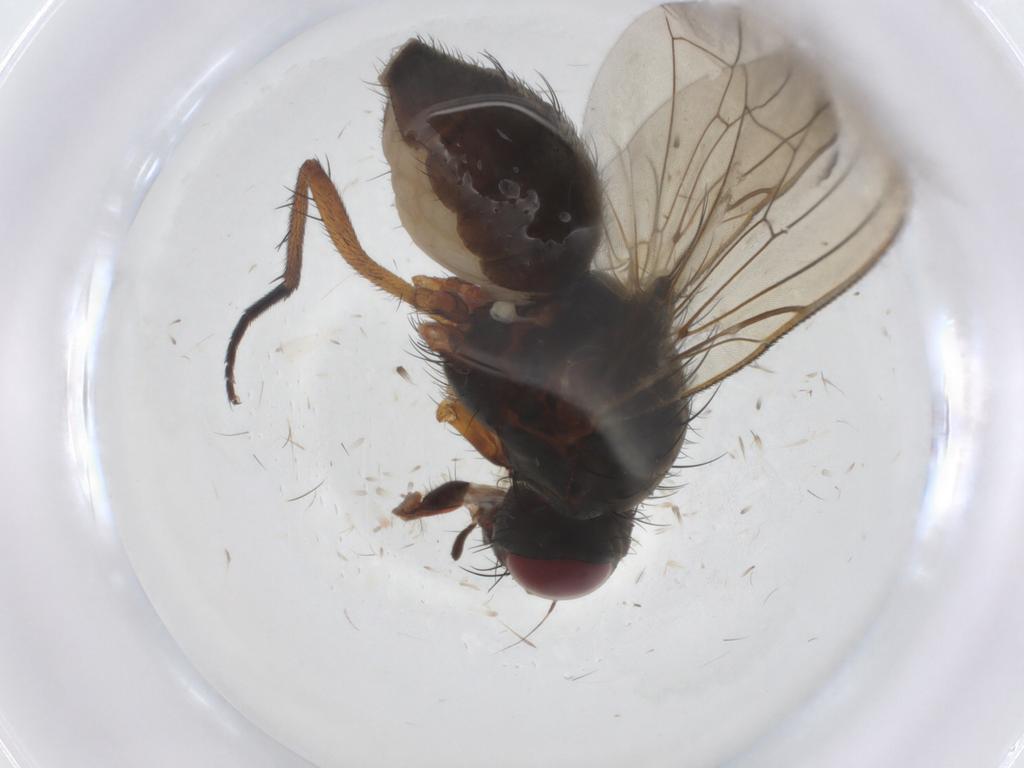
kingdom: Animalia
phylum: Arthropoda
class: Insecta
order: Diptera
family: Anthomyiidae
